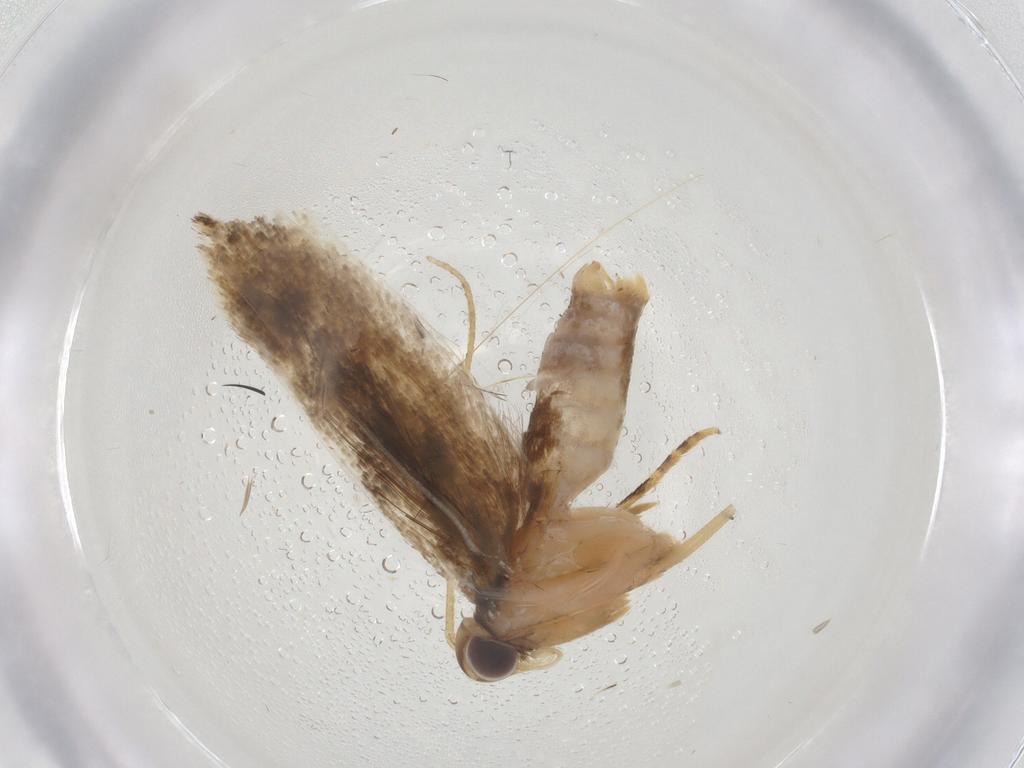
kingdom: Animalia
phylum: Arthropoda
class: Insecta
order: Lepidoptera
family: Gelechiidae
